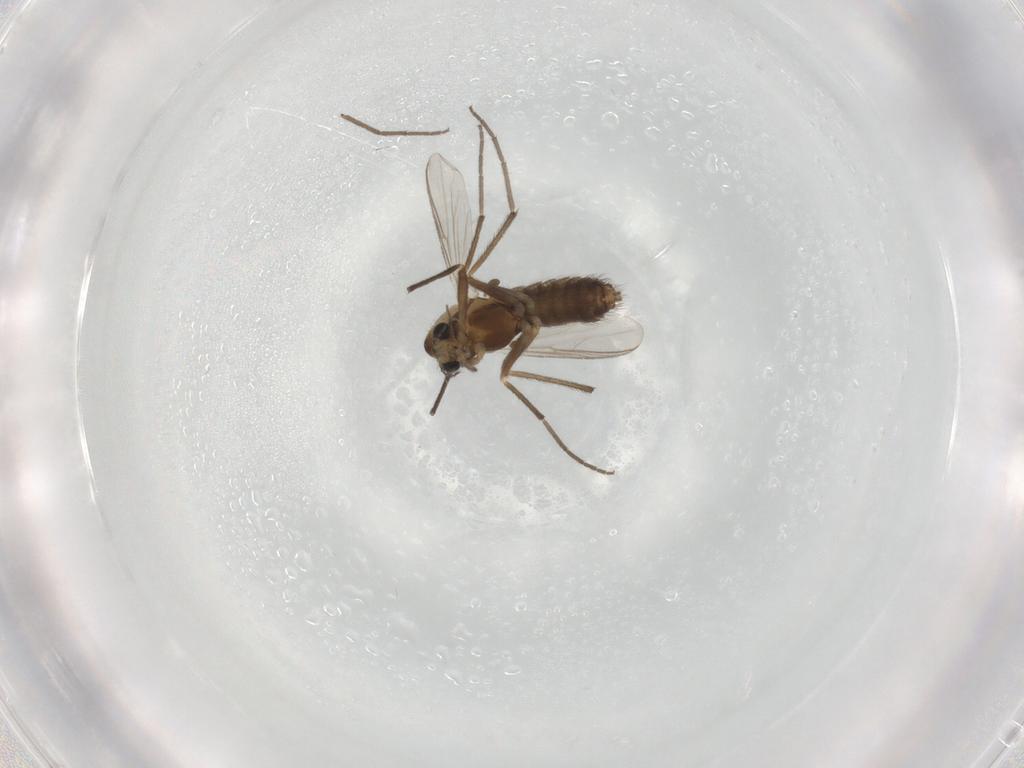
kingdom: Animalia
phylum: Arthropoda
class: Insecta
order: Diptera
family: Chironomidae
